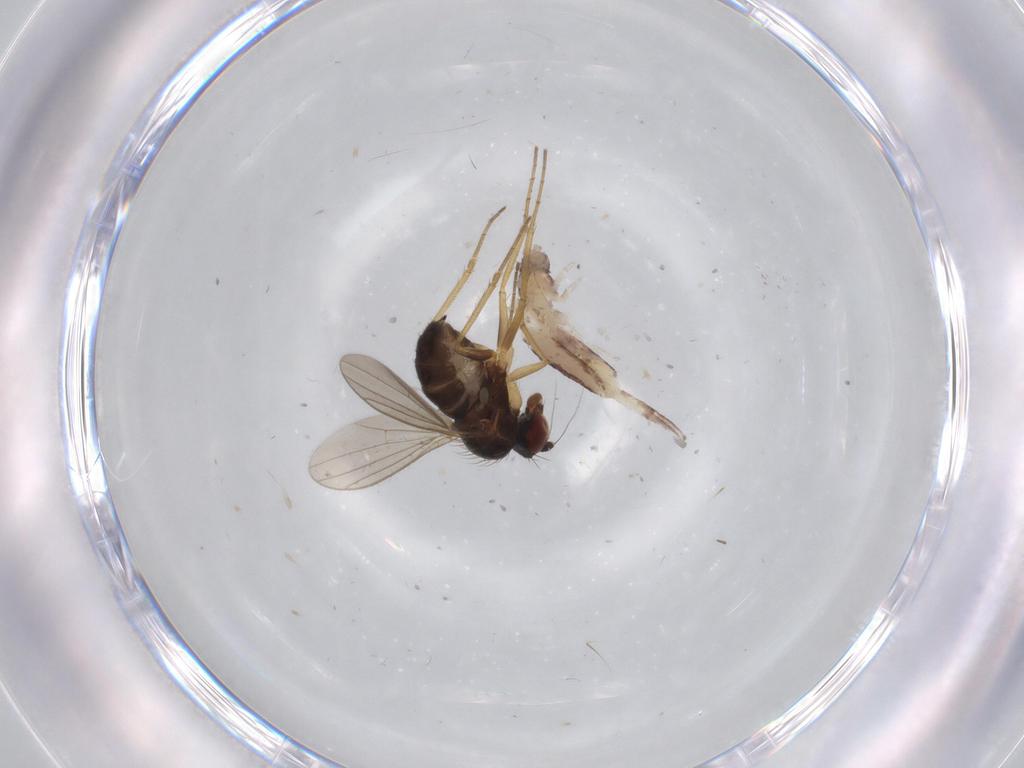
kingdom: Animalia
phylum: Arthropoda
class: Insecta
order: Diptera
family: Dolichopodidae
